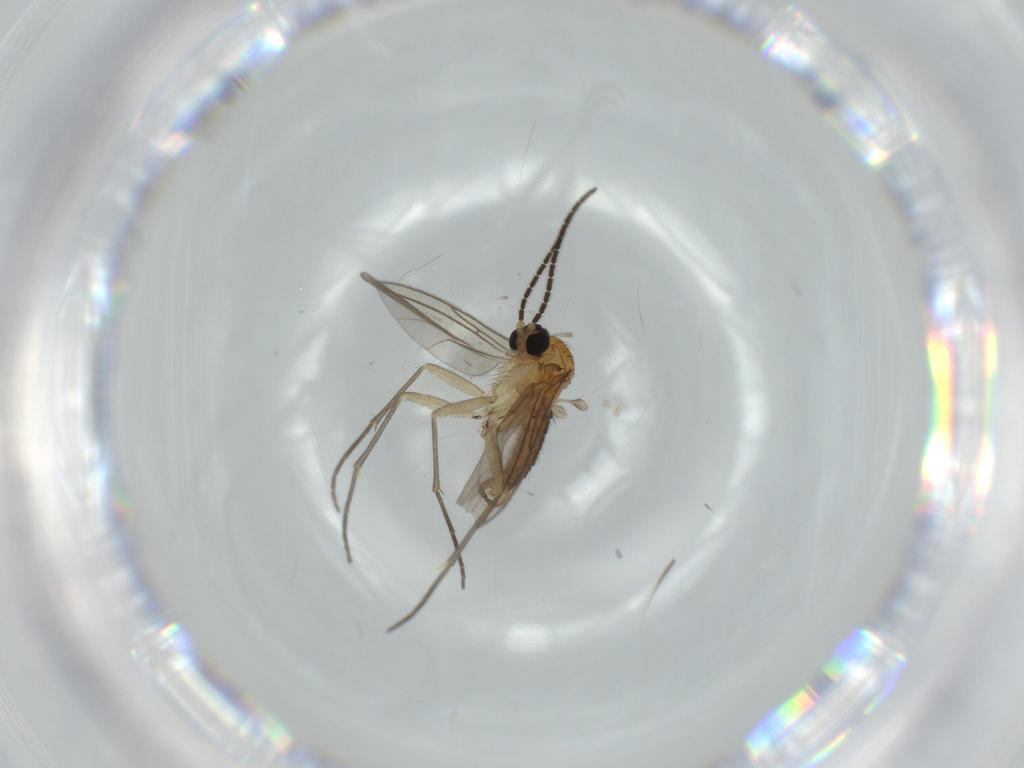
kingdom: Animalia
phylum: Arthropoda
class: Insecta
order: Diptera
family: Sciaridae
